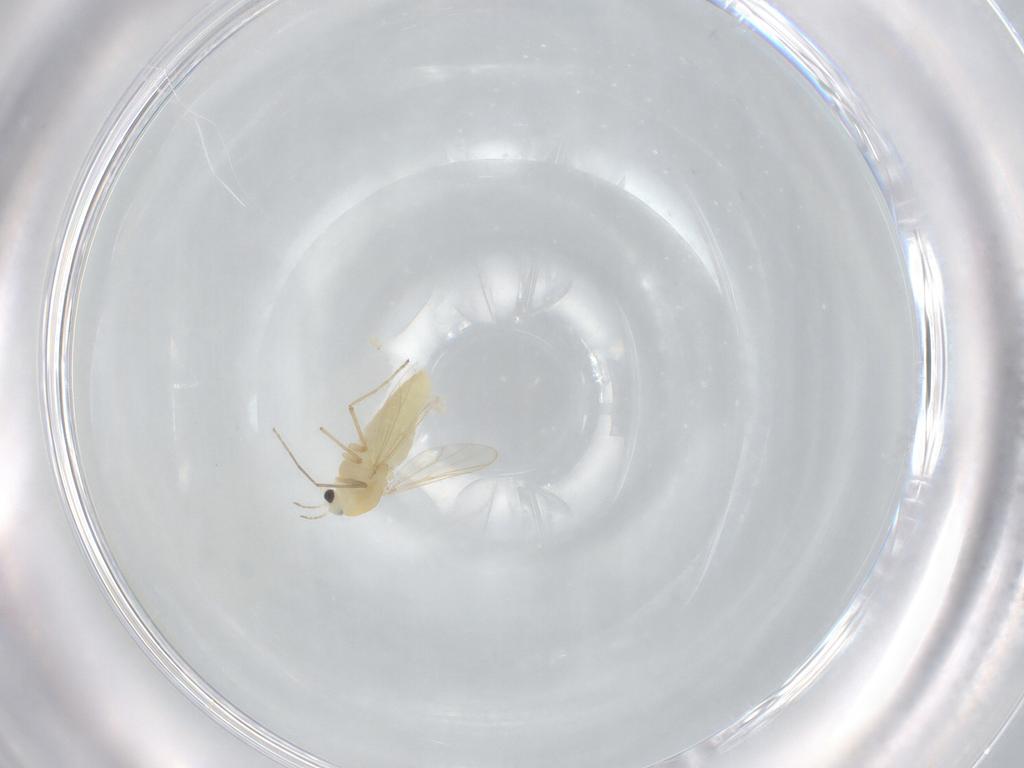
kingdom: Animalia
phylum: Arthropoda
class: Insecta
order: Diptera
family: Chironomidae
